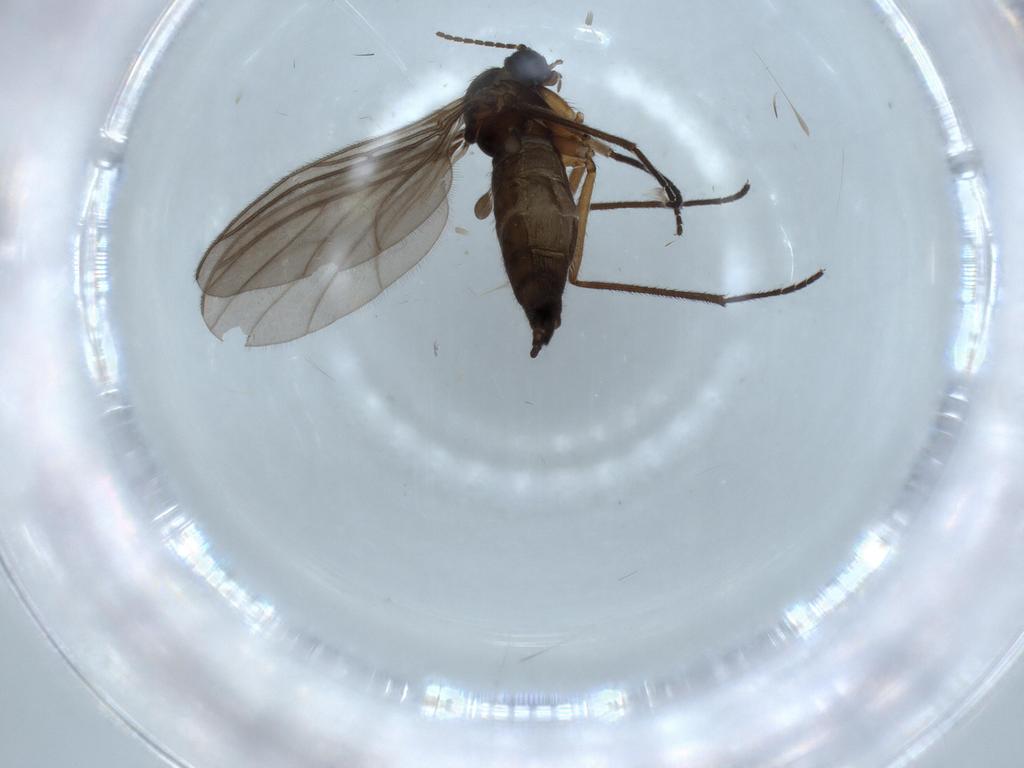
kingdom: Animalia
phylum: Arthropoda
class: Insecta
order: Diptera
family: Sciaridae
